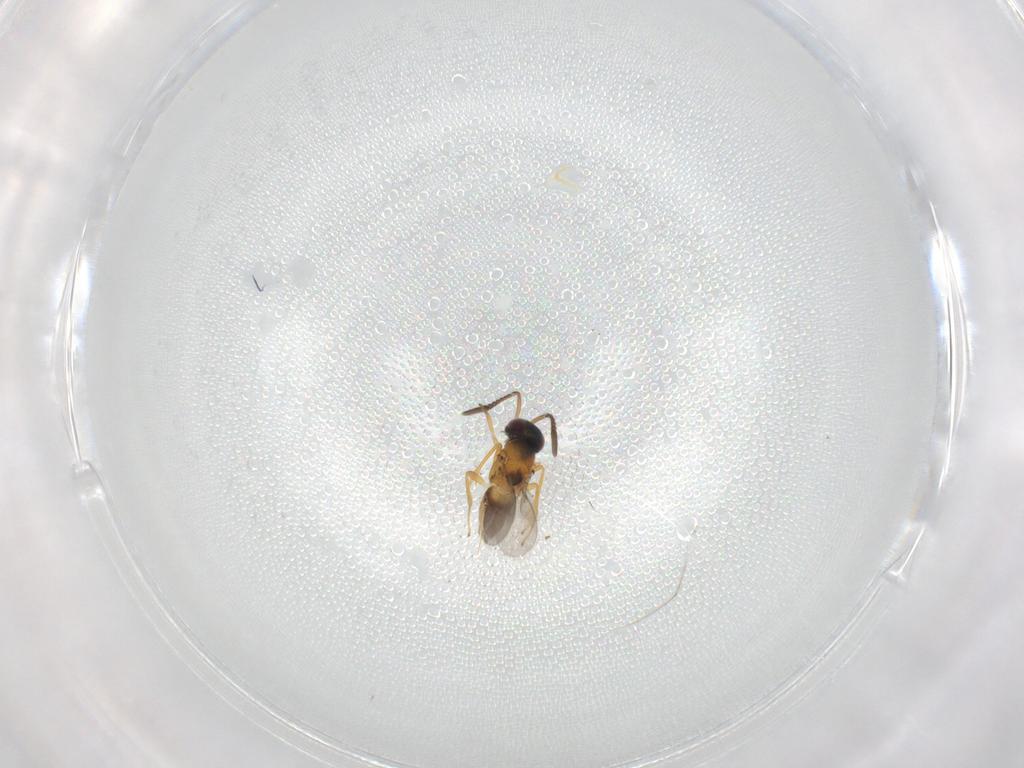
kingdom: Animalia
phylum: Arthropoda
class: Insecta
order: Hymenoptera
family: Encyrtidae
